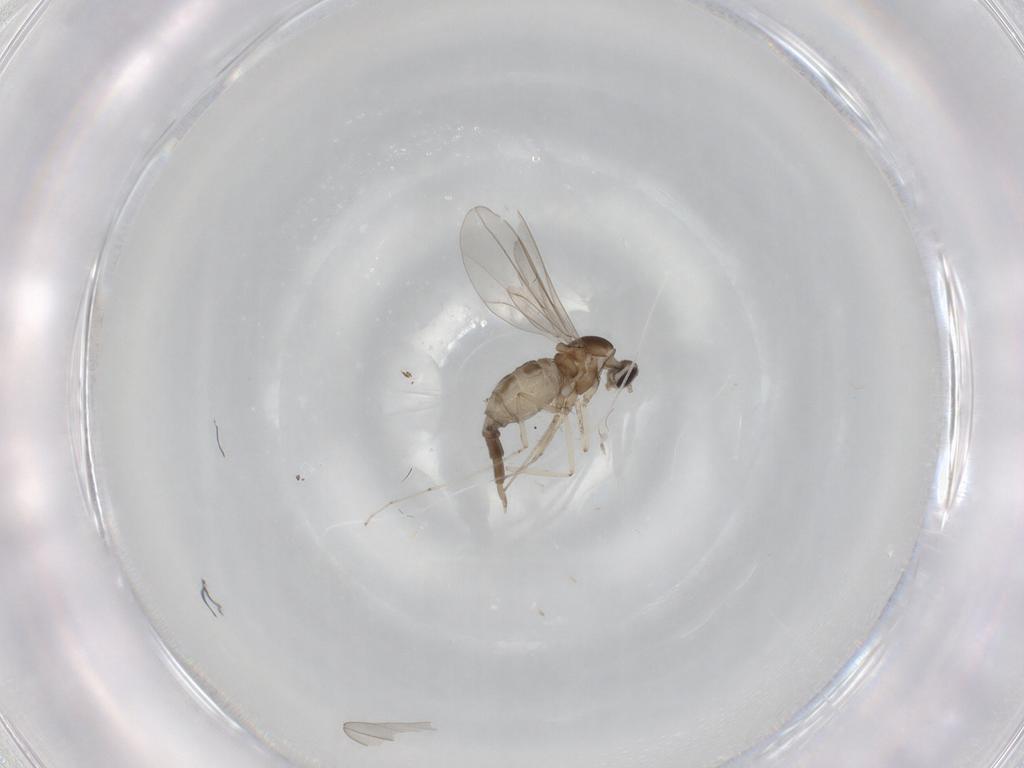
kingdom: Animalia
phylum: Arthropoda
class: Insecta
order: Diptera
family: Cecidomyiidae
